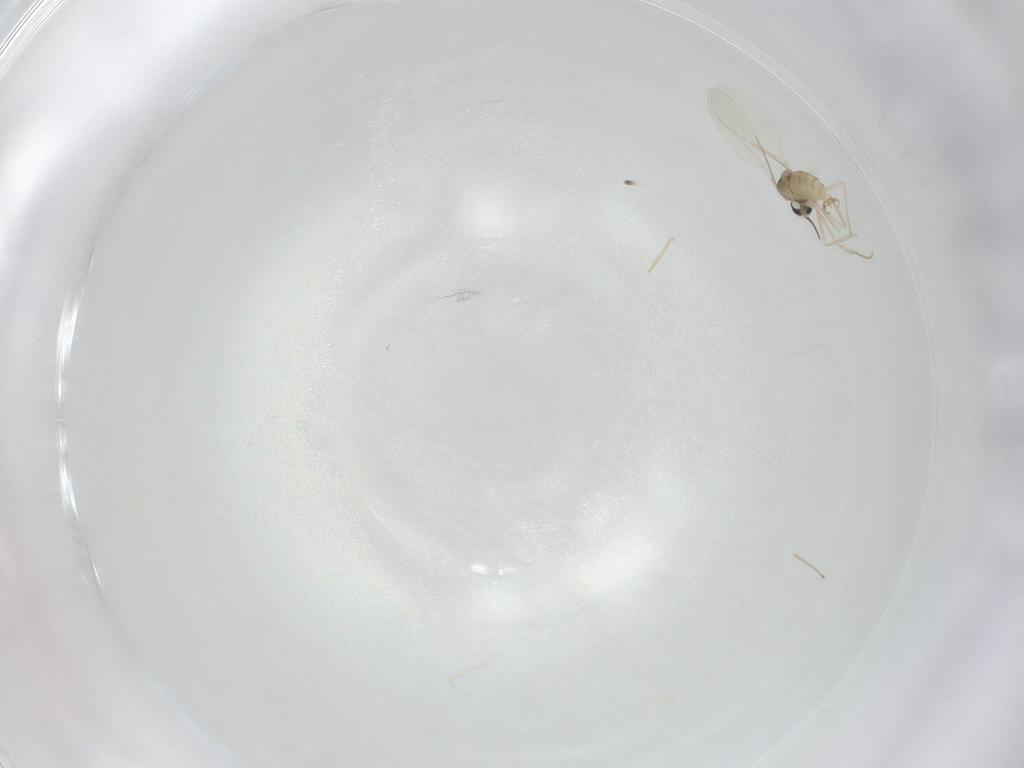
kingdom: Animalia
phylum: Arthropoda
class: Insecta
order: Diptera
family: Cecidomyiidae
